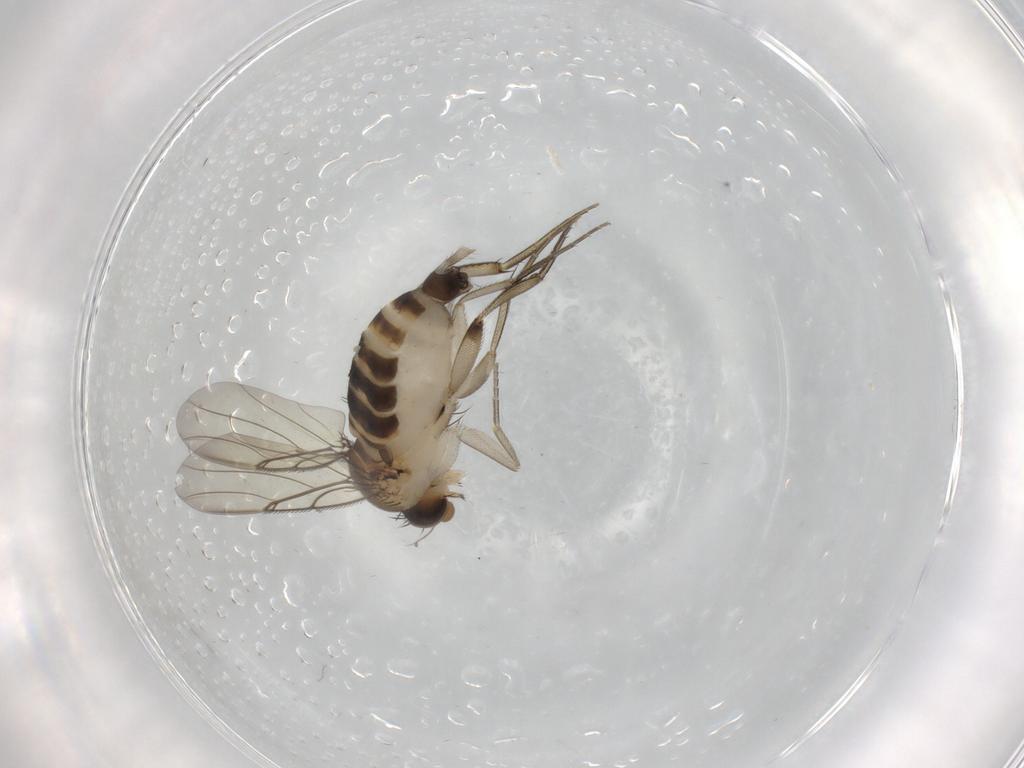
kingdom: Animalia
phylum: Arthropoda
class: Insecta
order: Diptera
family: Phoridae
